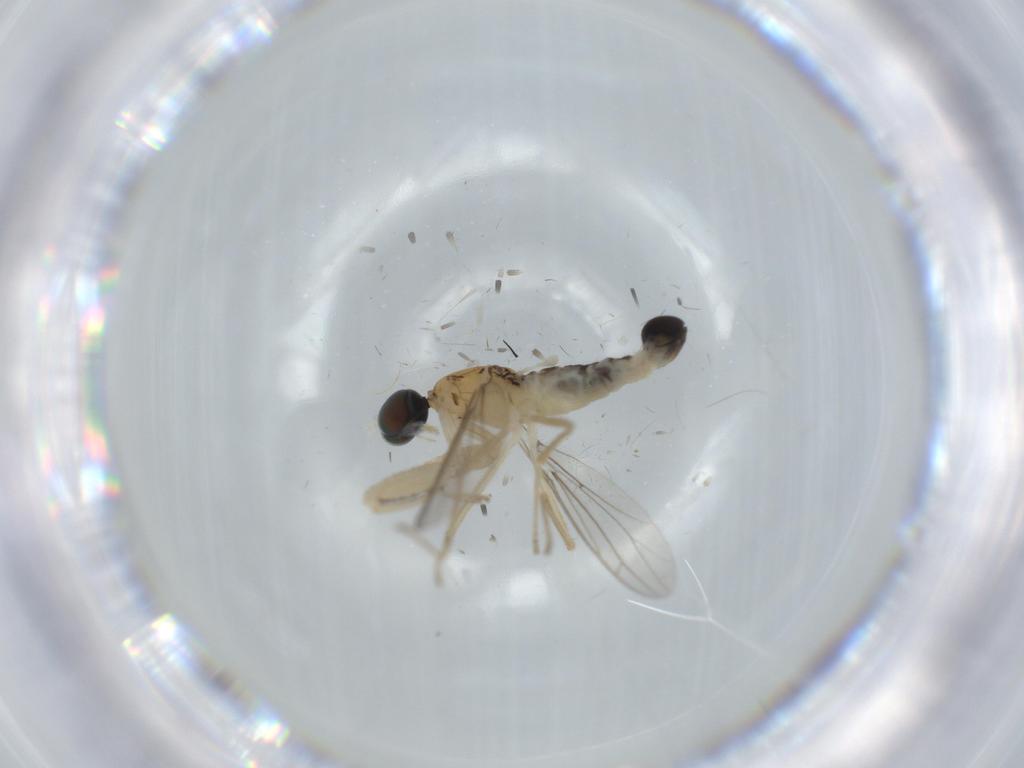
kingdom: Animalia
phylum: Arthropoda
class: Insecta
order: Diptera
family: Empididae
